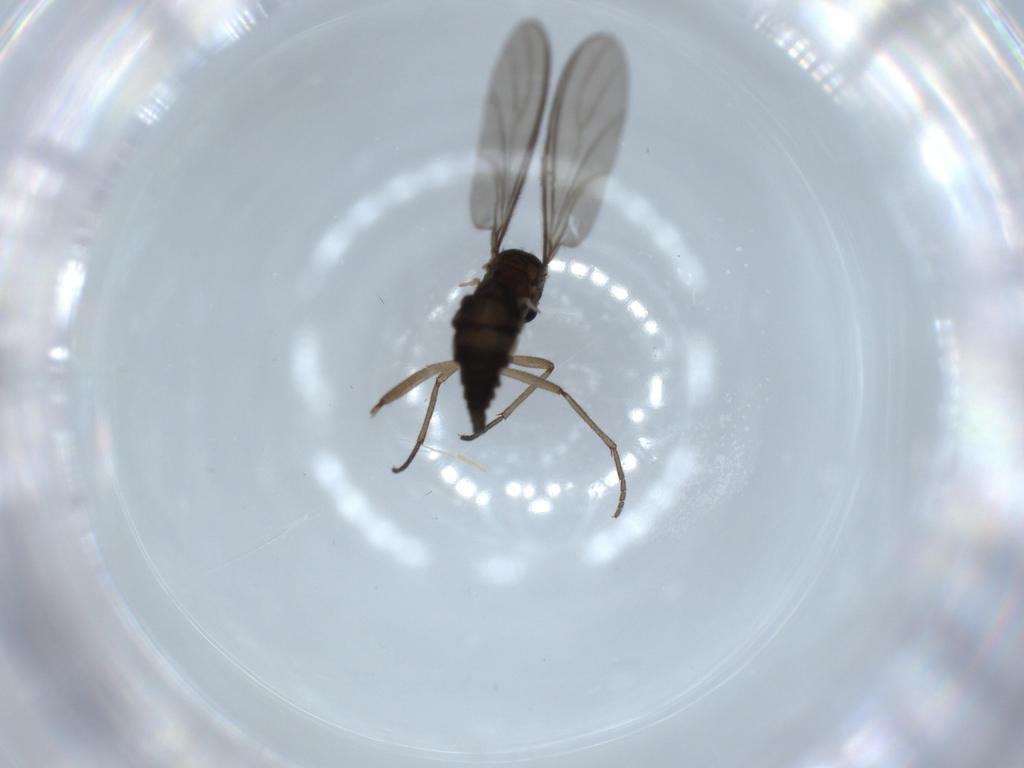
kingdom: Animalia
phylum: Arthropoda
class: Insecta
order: Diptera
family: Sciaridae
